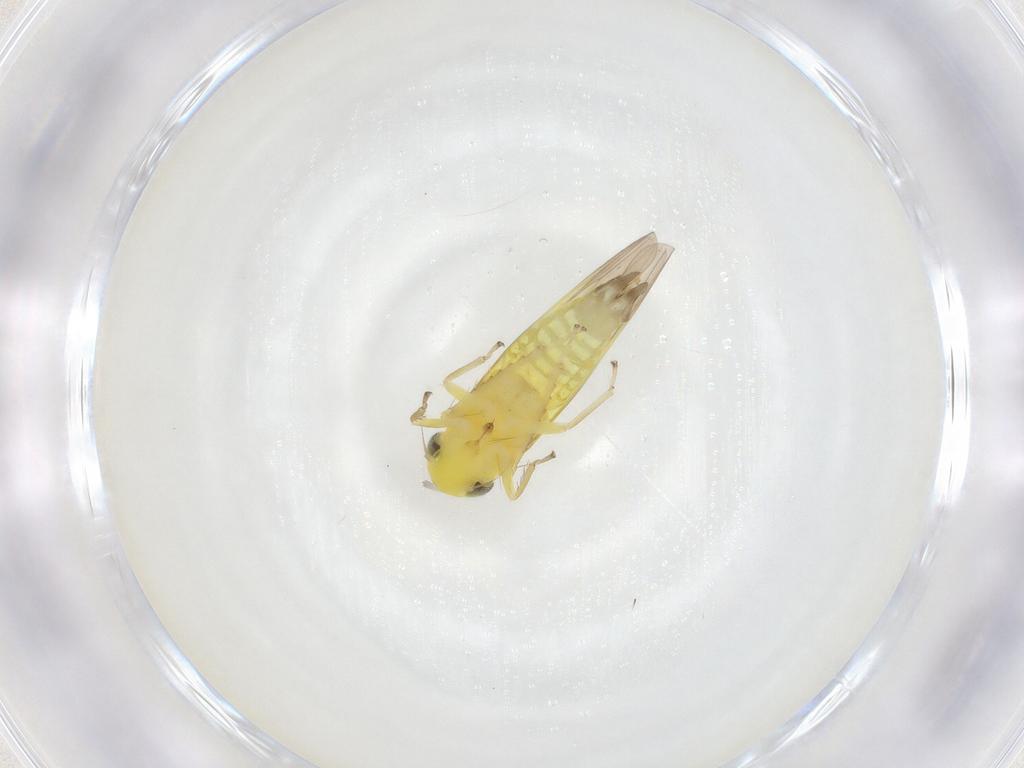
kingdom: Animalia
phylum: Arthropoda
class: Insecta
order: Hemiptera
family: Cicadellidae
